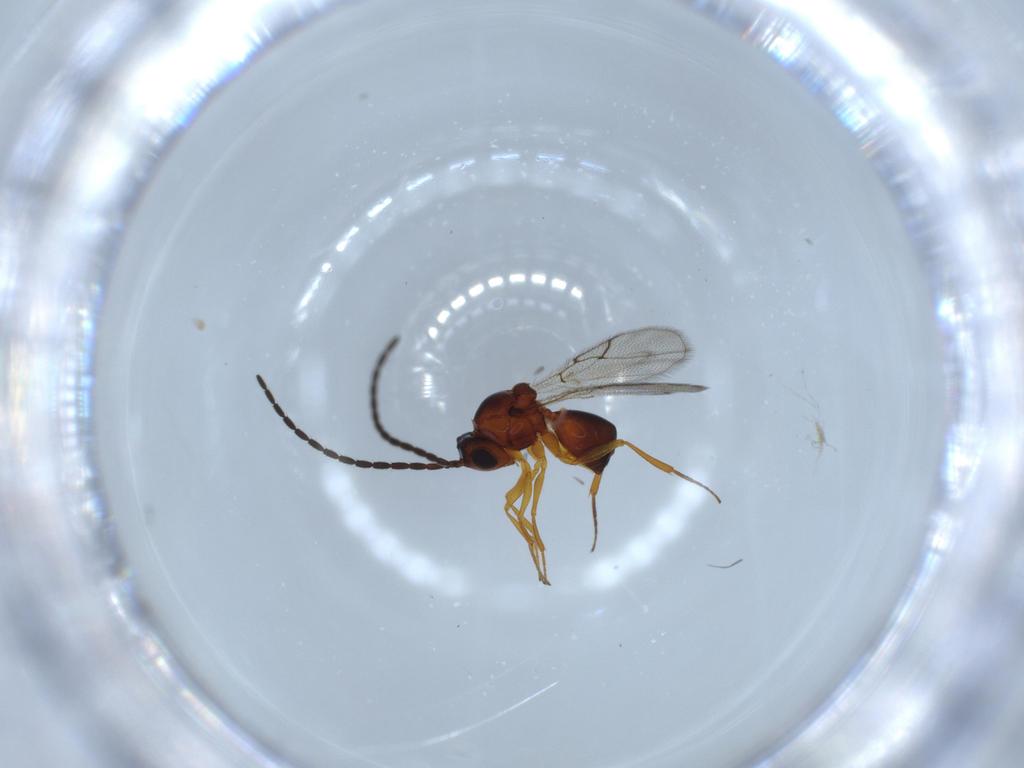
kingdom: Animalia
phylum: Arthropoda
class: Insecta
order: Hymenoptera
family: Figitidae
